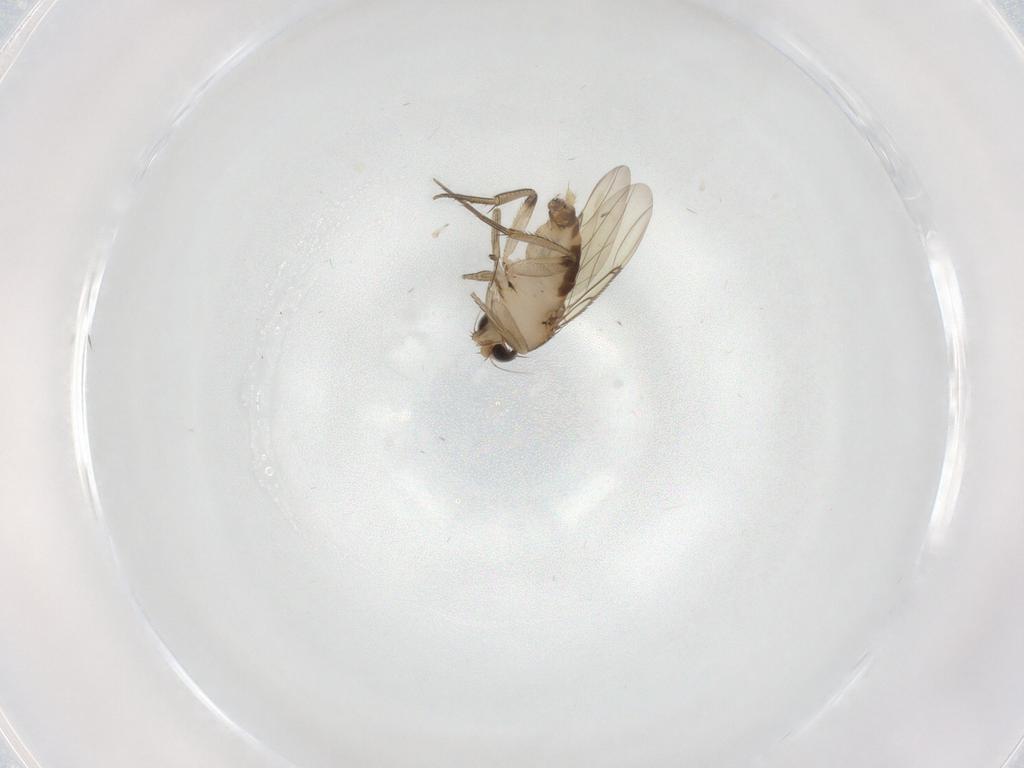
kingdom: Animalia
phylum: Arthropoda
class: Insecta
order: Diptera
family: Phoridae
